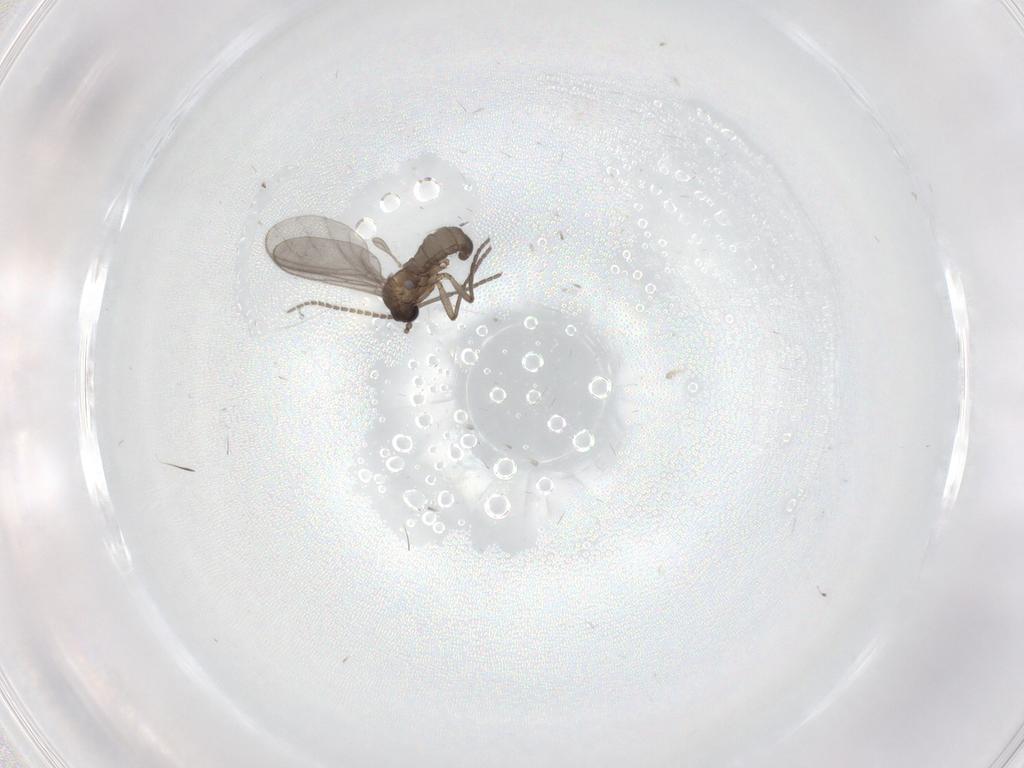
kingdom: Animalia
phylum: Arthropoda
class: Insecta
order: Diptera
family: Sciaridae
